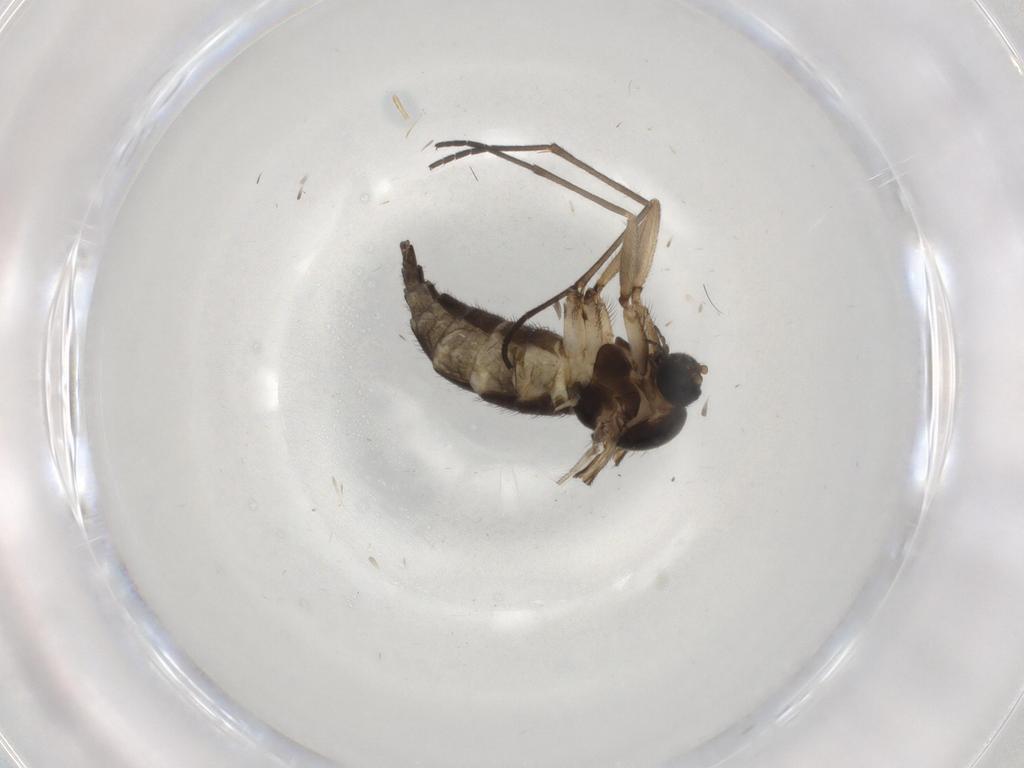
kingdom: Animalia
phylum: Arthropoda
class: Insecta
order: Diptera
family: Sciaridae
